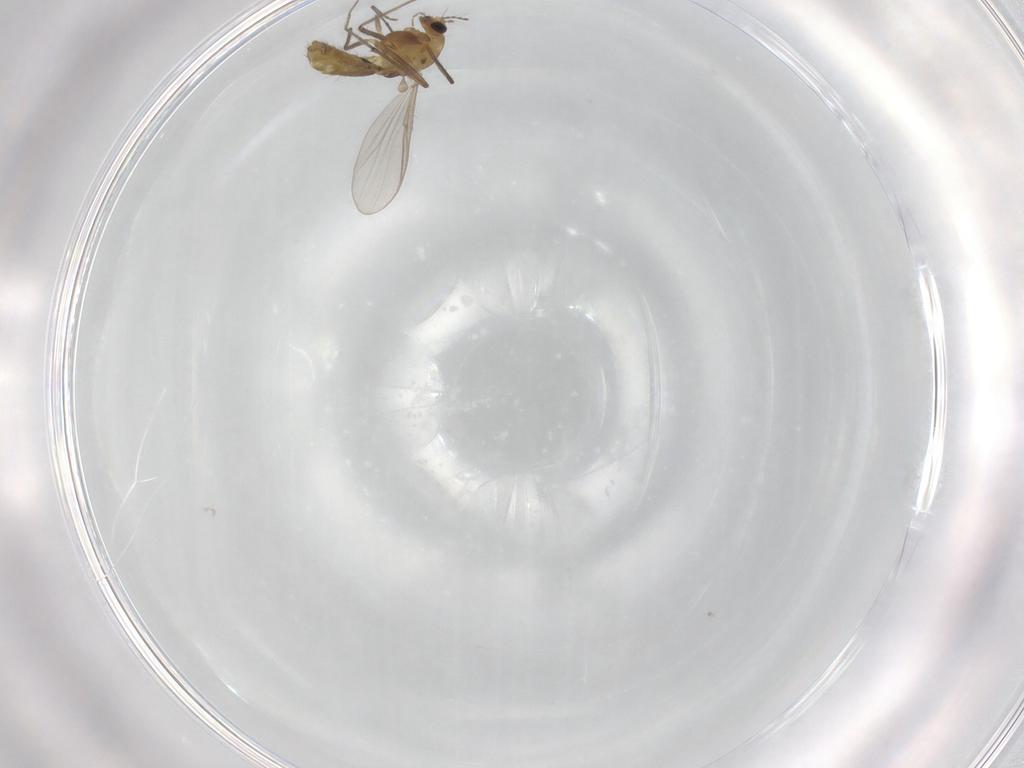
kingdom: Animalia
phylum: Arthropoda
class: Insecta
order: Diptera
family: Chironomidae
